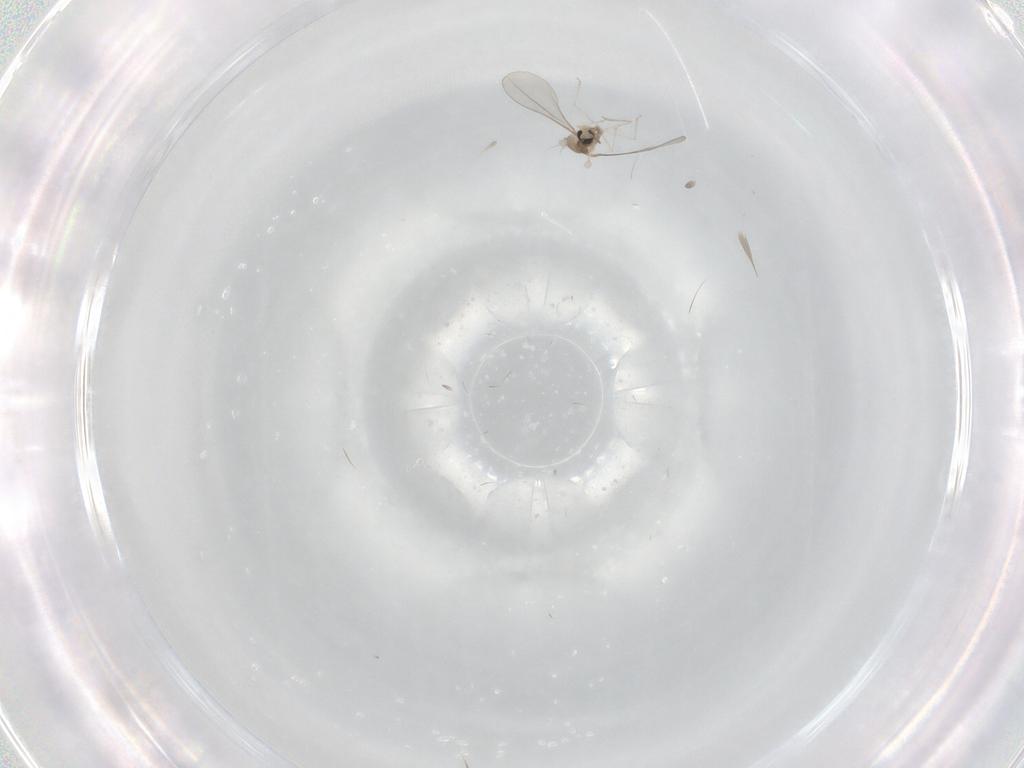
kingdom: Animalia
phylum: Arthropoda
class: Insecta
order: Diptera
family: Cecidomyiidae
